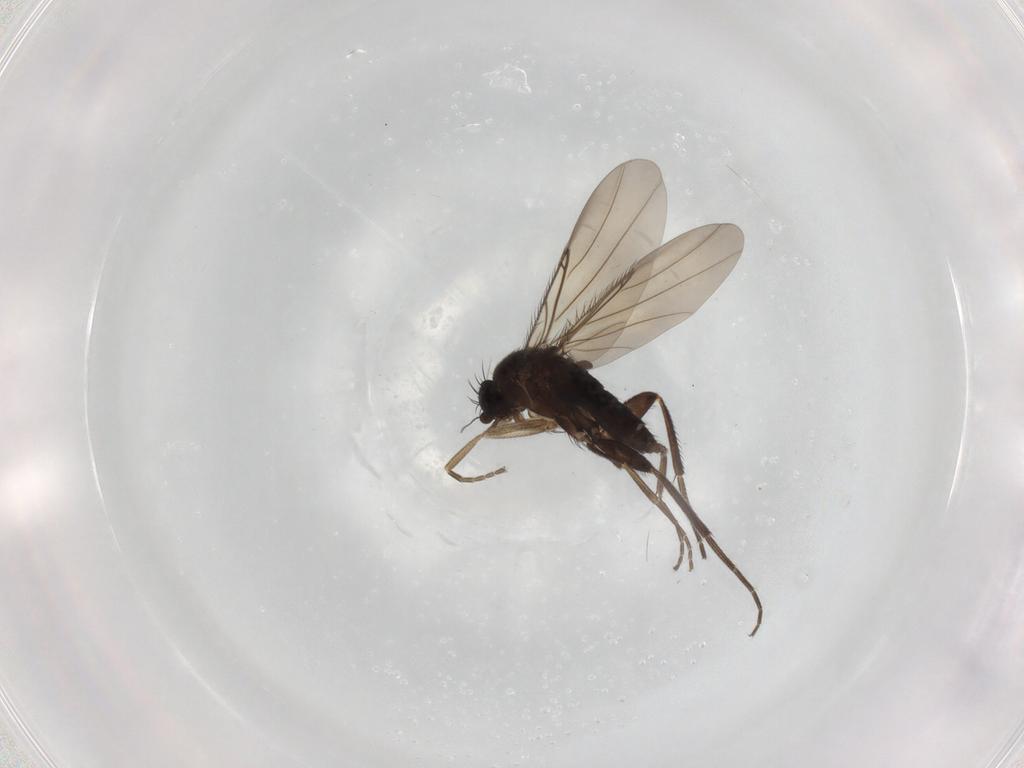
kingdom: Animalia
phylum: Arthropoda
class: Insecta
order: Diptera
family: Phoridae
